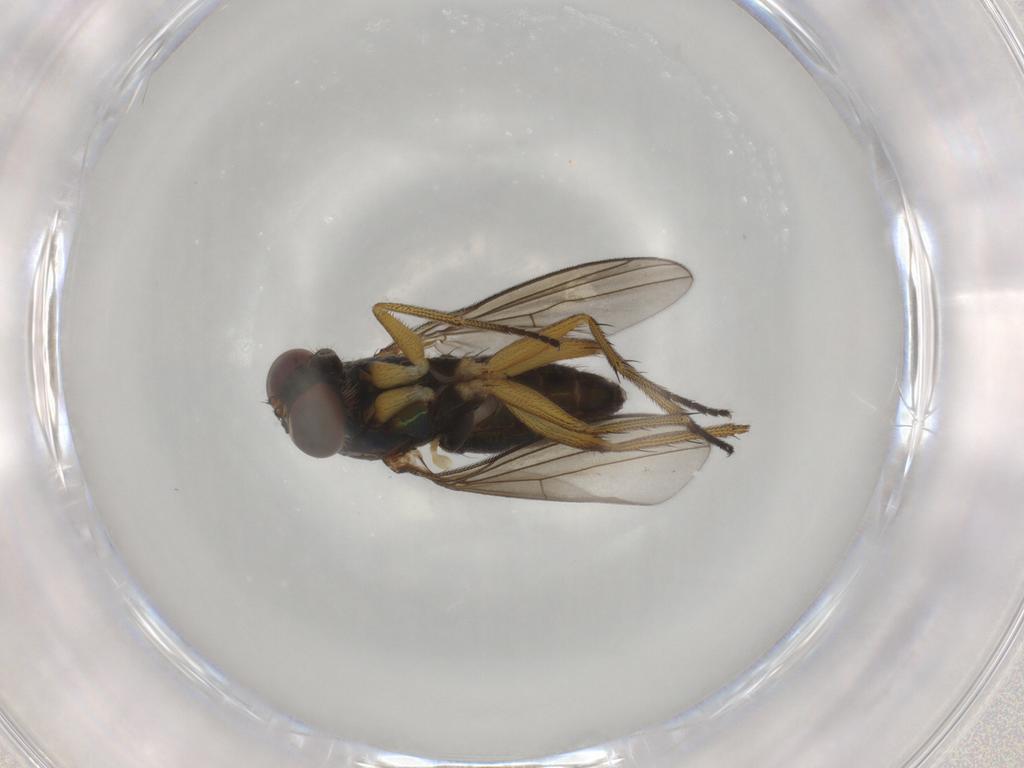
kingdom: Animalia
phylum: Arthropoda
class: Insecta
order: Diptera
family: Dolichopodidae
